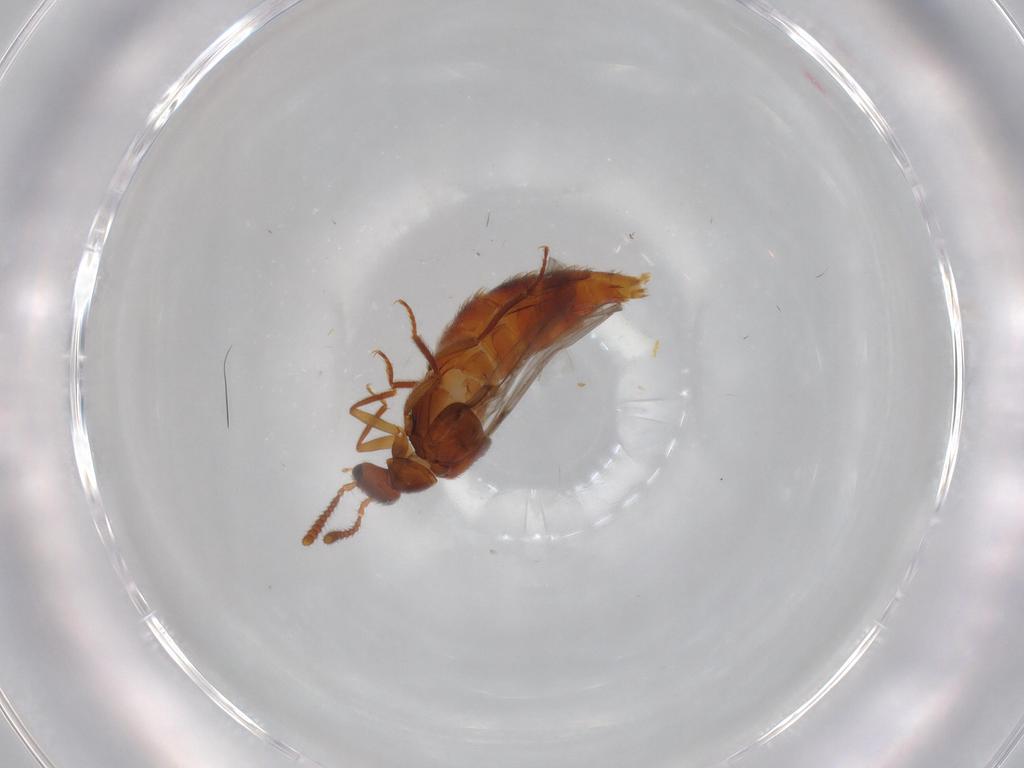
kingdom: Animalia
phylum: Arthropoda
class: Insecta
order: Coleoptera
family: Staphylinidae
